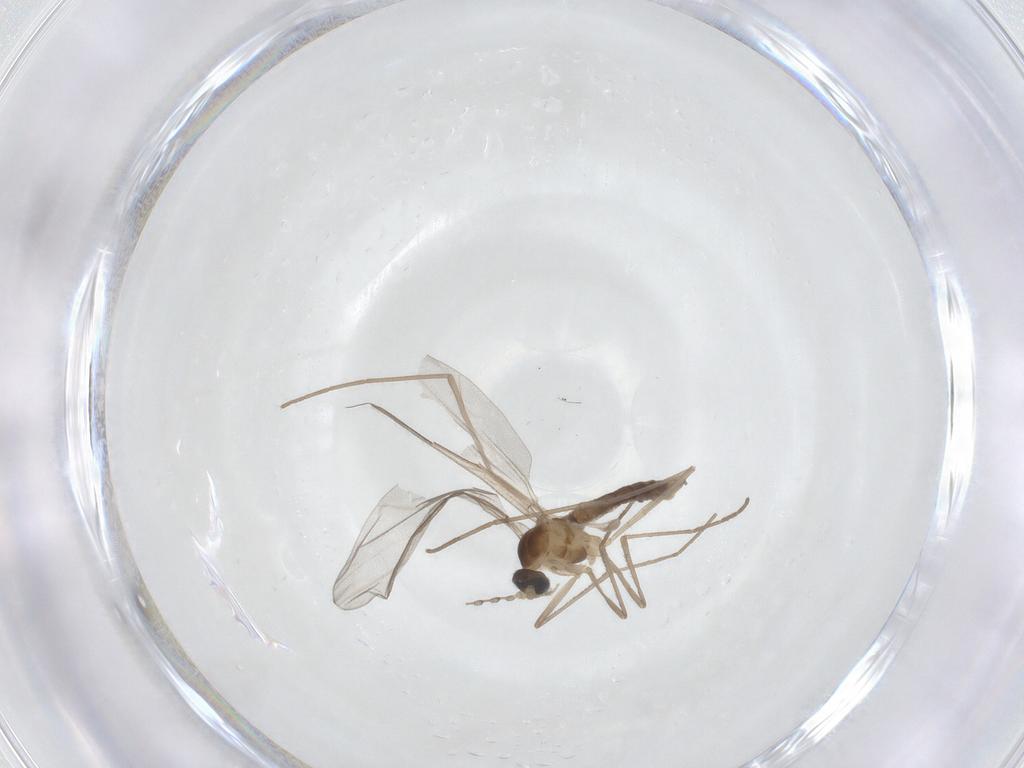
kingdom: Animalia
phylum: Arthropoda
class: Insecta
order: Diptera
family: Cecidomyiidae
